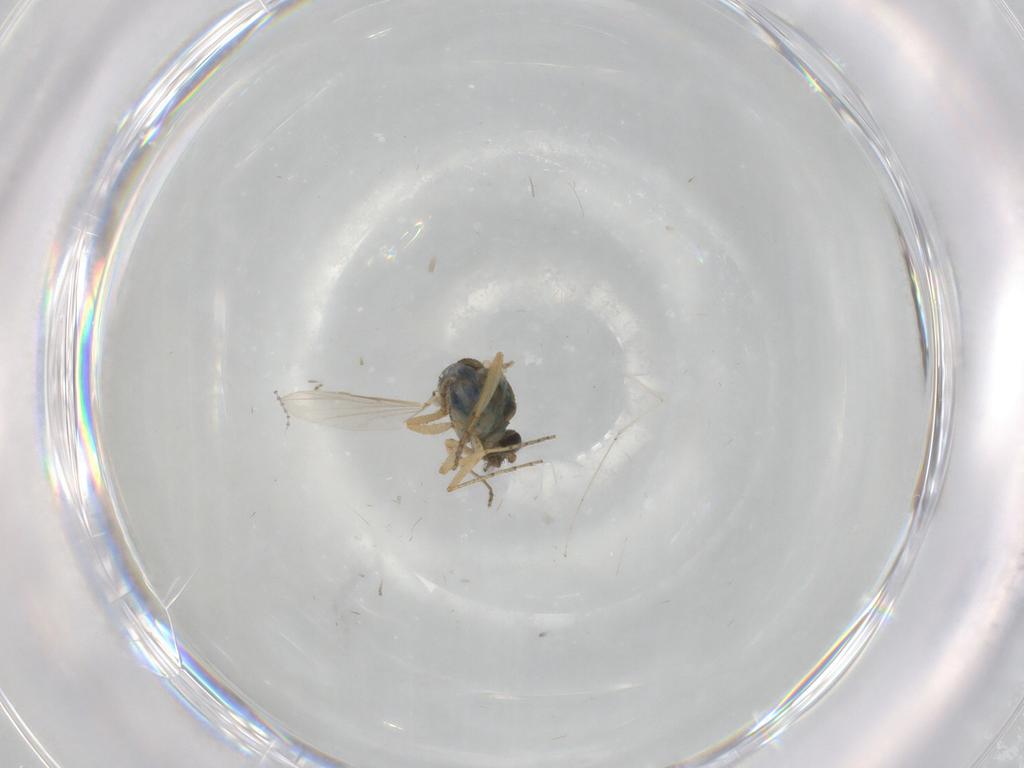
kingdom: Animalia
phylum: Arthropoda
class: Insecta
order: Diptera
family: Ceratopogonidae
